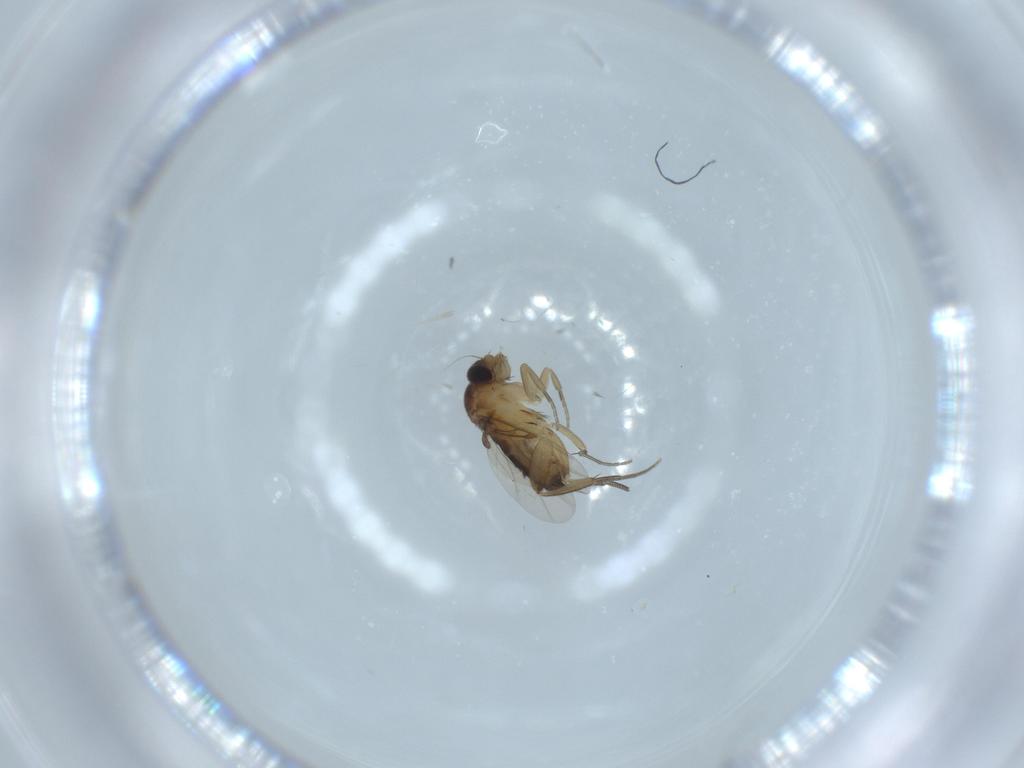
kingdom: Animalia
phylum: Arthropoda
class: Insecta
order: Diptera
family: Phoridae
